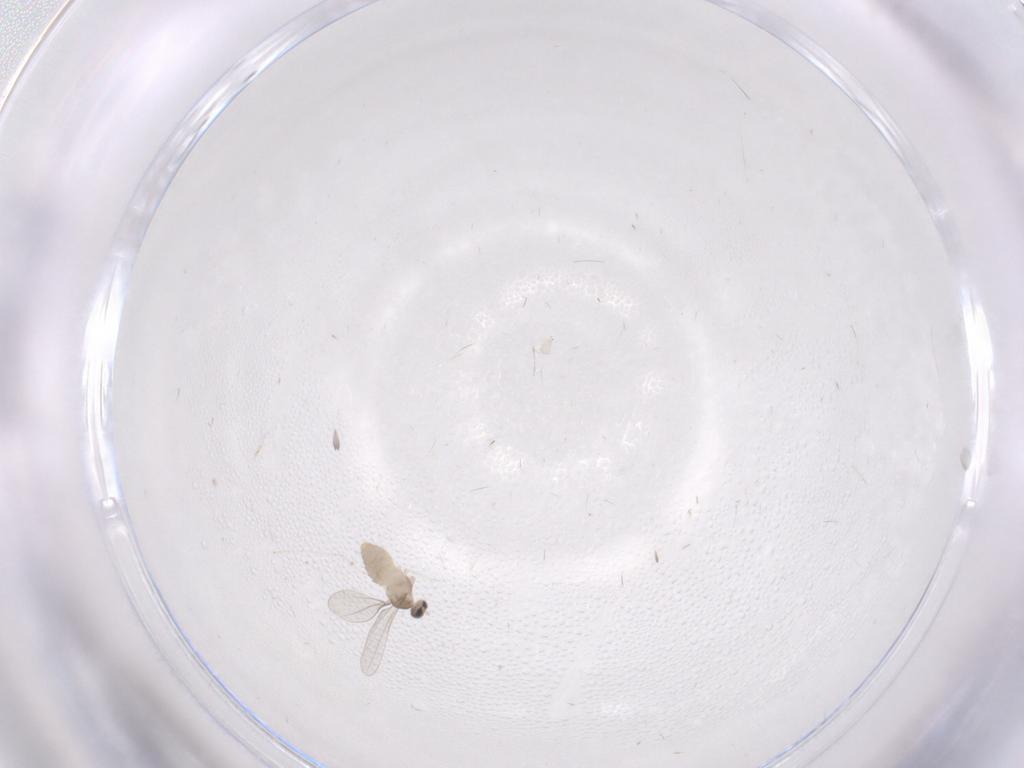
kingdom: Animalia
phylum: Arthropoda
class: Insecta
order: Diptera
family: Cecidomyiidae
